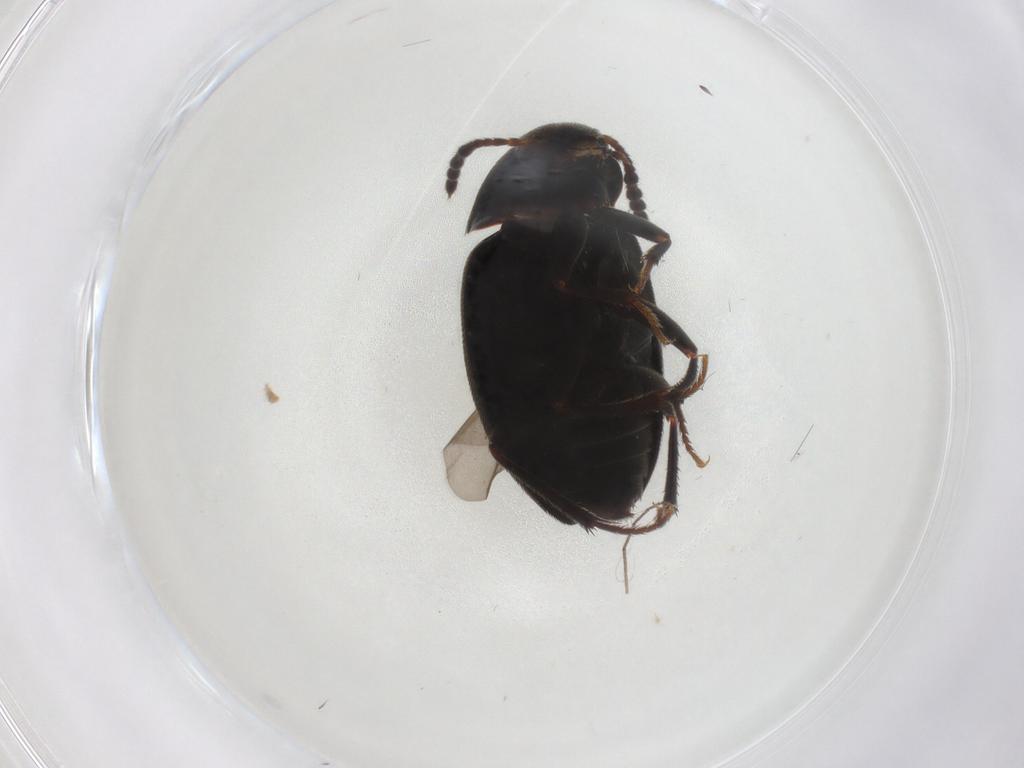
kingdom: Animalia
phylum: Arthropoda
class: Insecta
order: Coleoptera
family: Leiodidae
